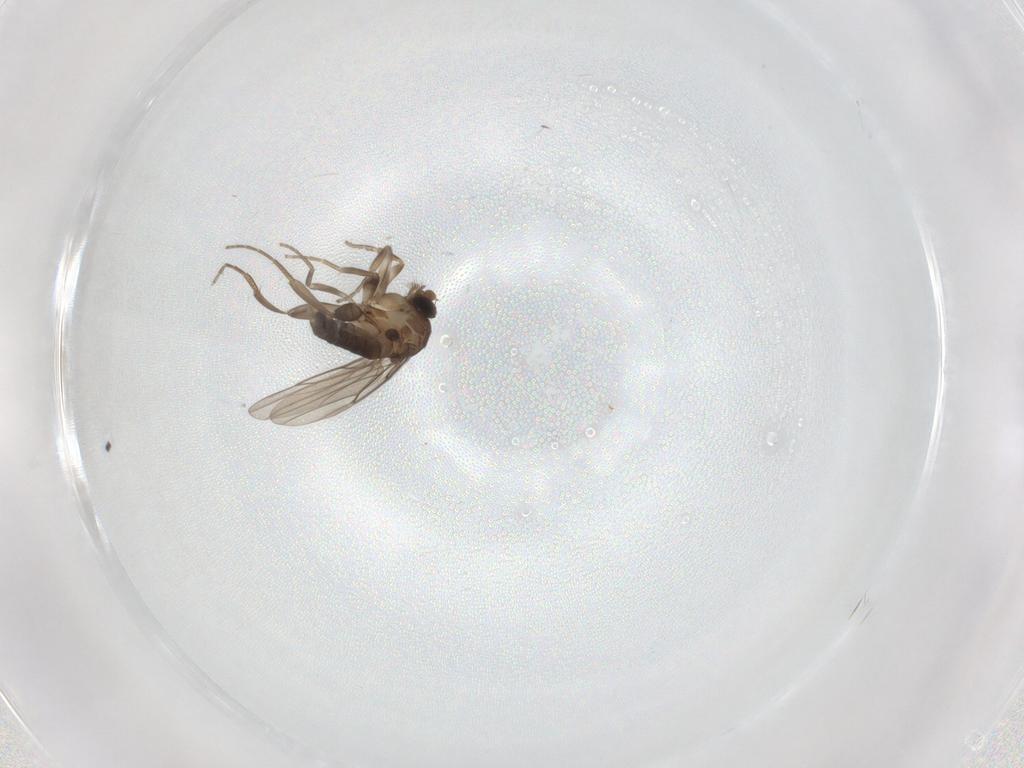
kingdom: Animalia
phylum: Arthropoda
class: Insecta
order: Diptera
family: Phoridae
